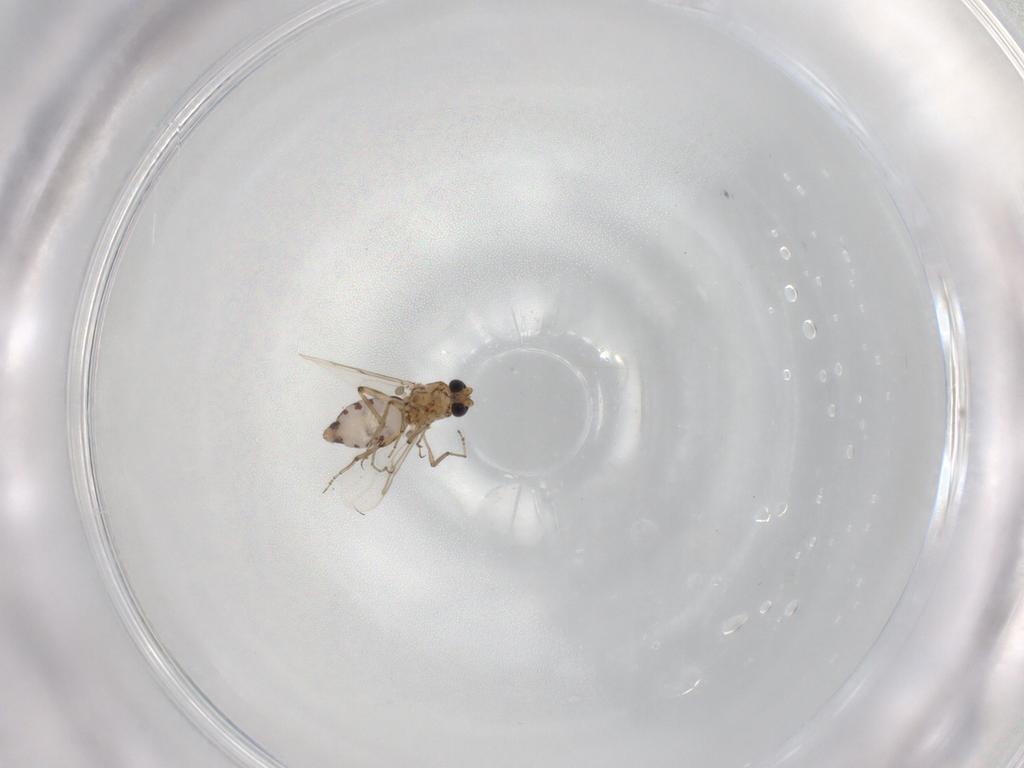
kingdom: Animalia
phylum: Arthropoda
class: Insecta
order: Diptera
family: Ceratopogonidae
